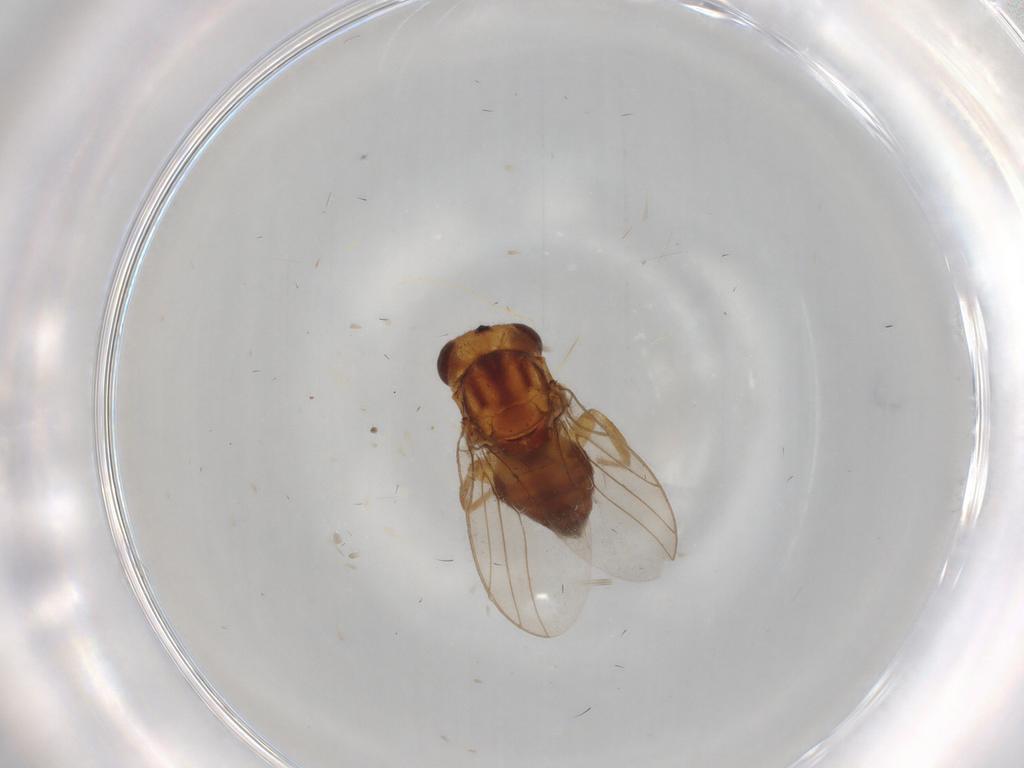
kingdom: Animalia
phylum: Arthropoda
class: Insecta
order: Diptera
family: Chloropidae
